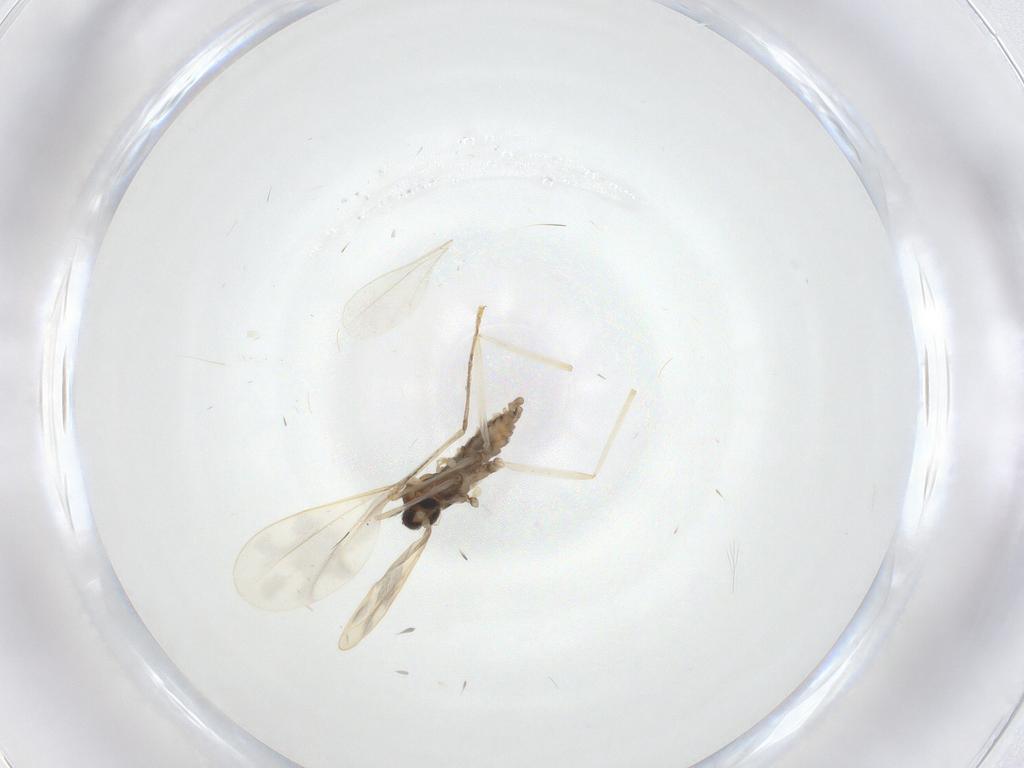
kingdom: Animalia
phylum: Arthropoda
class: Insecta
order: Diptera
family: Cecidomyiidae
